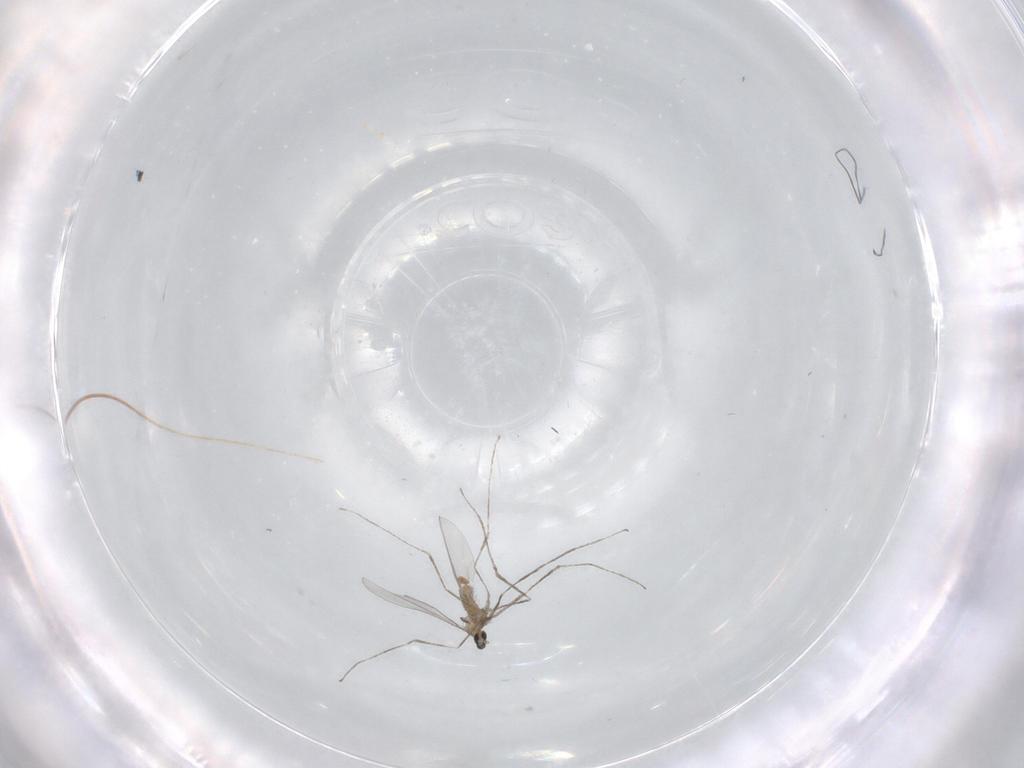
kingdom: Animalia
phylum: Arthropoda
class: Insecta
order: Diptera
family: Cecidomyiidae
